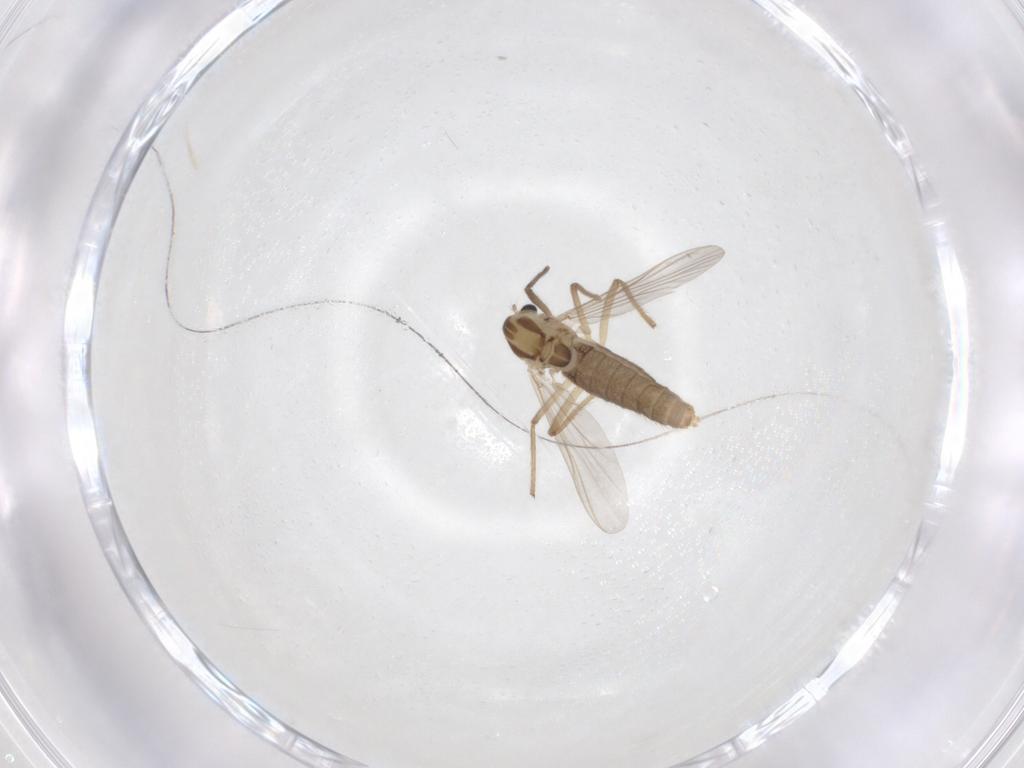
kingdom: Animalia
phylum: Arthropoda
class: Insecta
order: Diptera
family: Chironomidae
